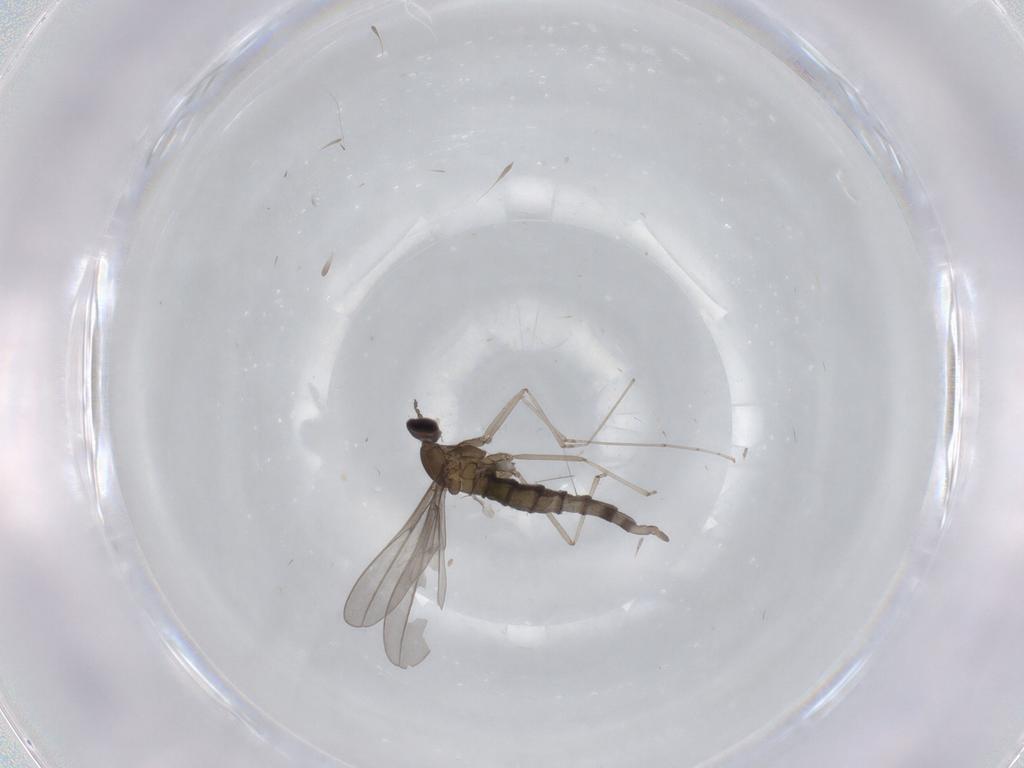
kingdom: Animalia
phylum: Arthropoda
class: Insecta
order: Diptera
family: Cecidomyiidae
